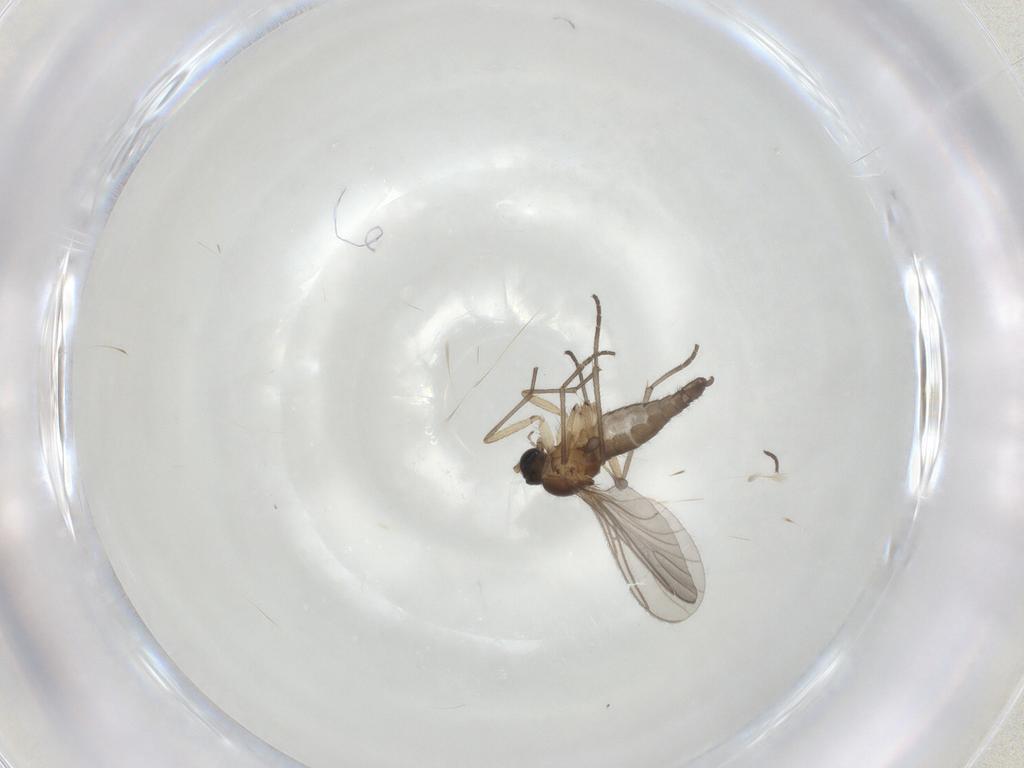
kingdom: Animalia
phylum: Arthropoda
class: Insecta
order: Diptera
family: Sciaridae
